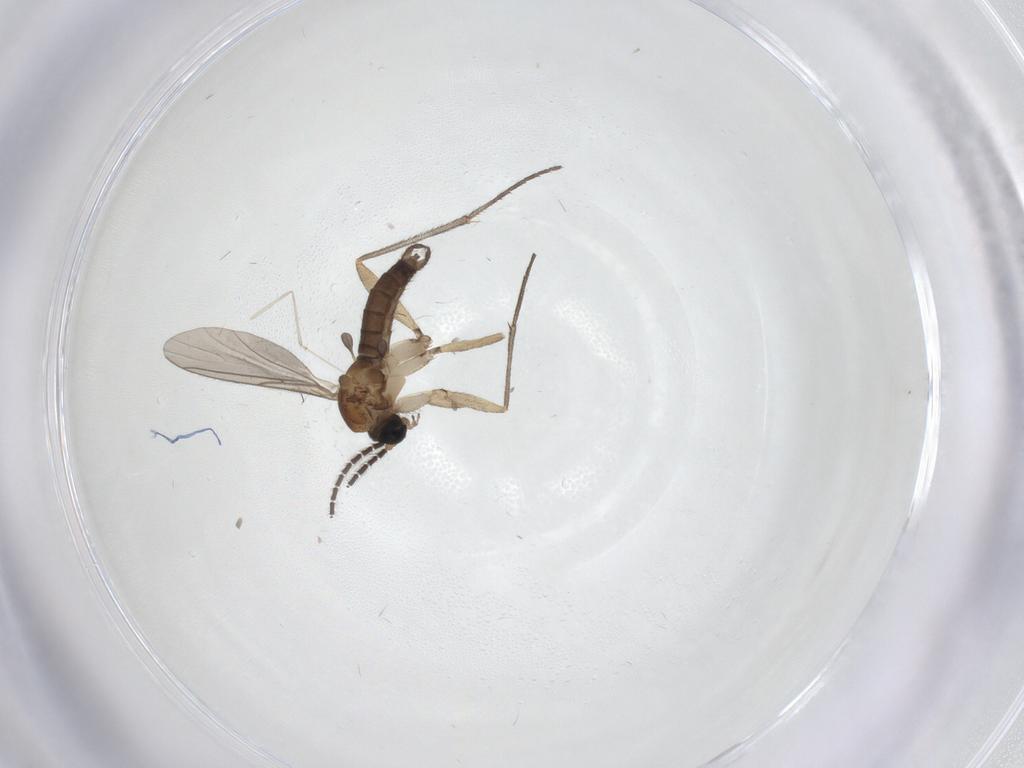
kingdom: Animalia
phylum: Arthropoda
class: Insecta
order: Diptera
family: Sciaridae
